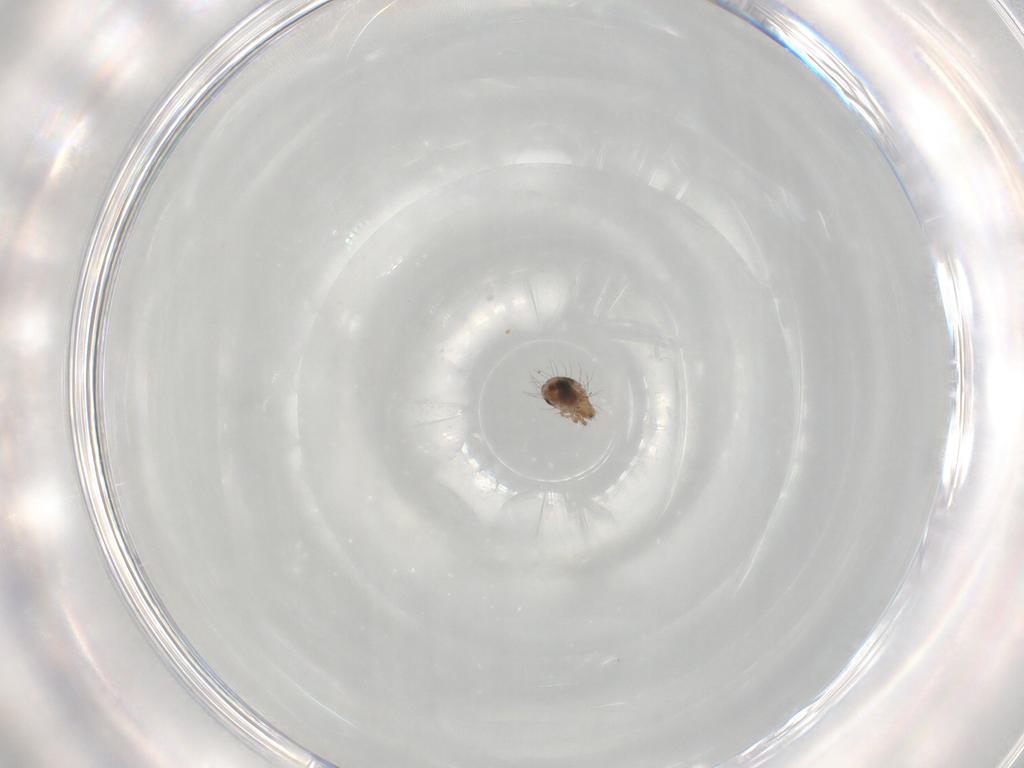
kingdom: Animalia
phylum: Arthropoda
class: Arachnida
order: Sarcoptiformes
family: Humerobatidae
